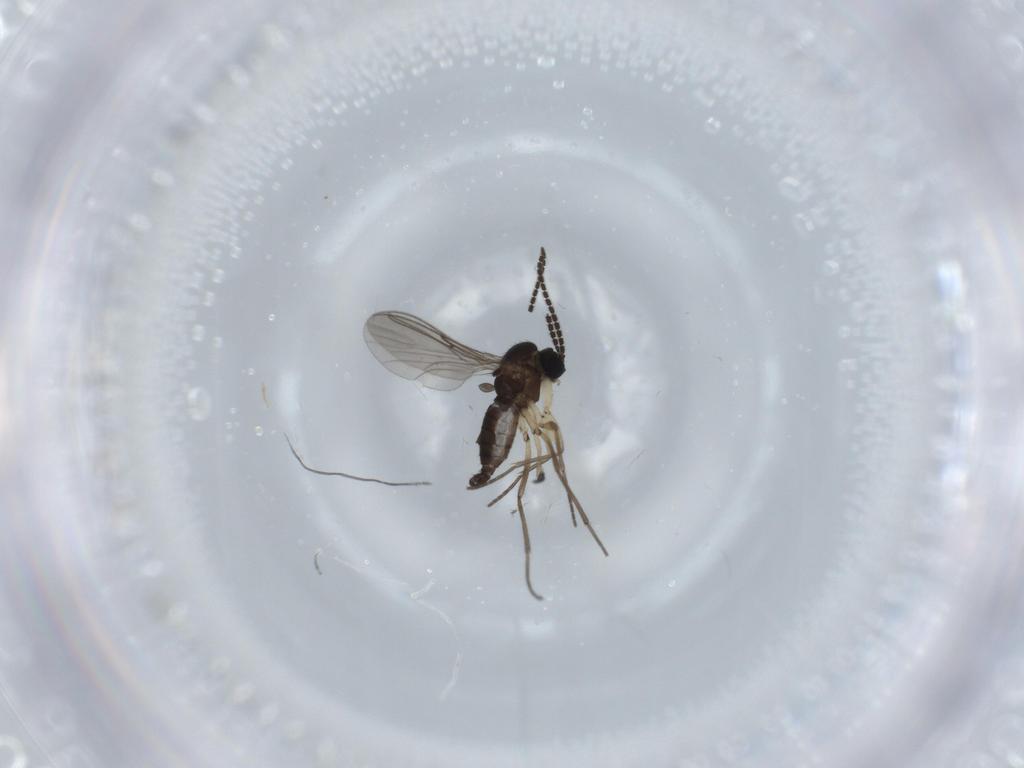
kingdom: Animalia
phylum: Arthropoda
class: Insecta
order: Diptera
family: Sciaridae
